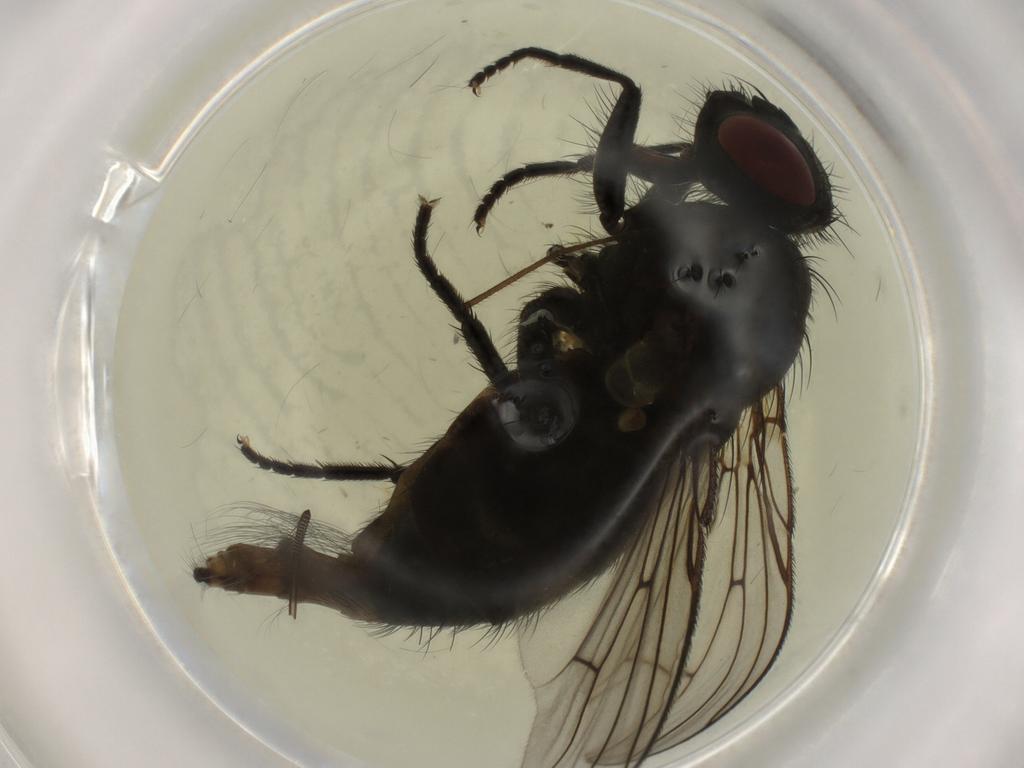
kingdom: Animalia
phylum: Arthropoda
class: Insecta
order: Diptera
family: Muscidae
